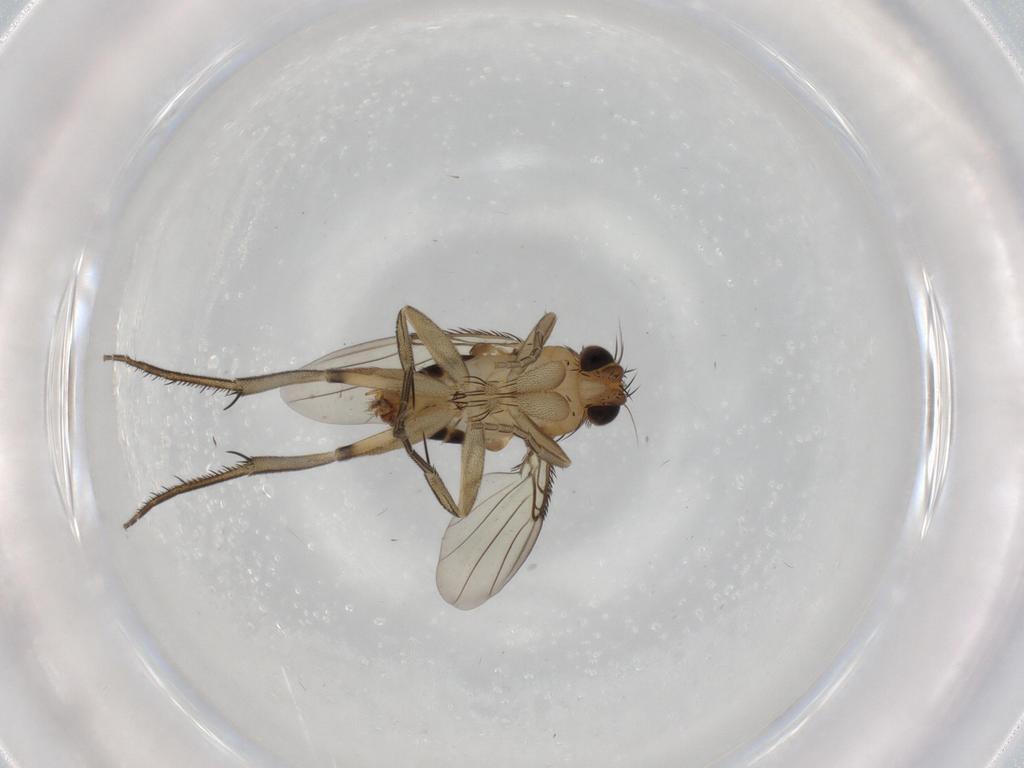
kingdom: Animalia
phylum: Arthropoda
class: Insecta
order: Diptera
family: Phoridae
